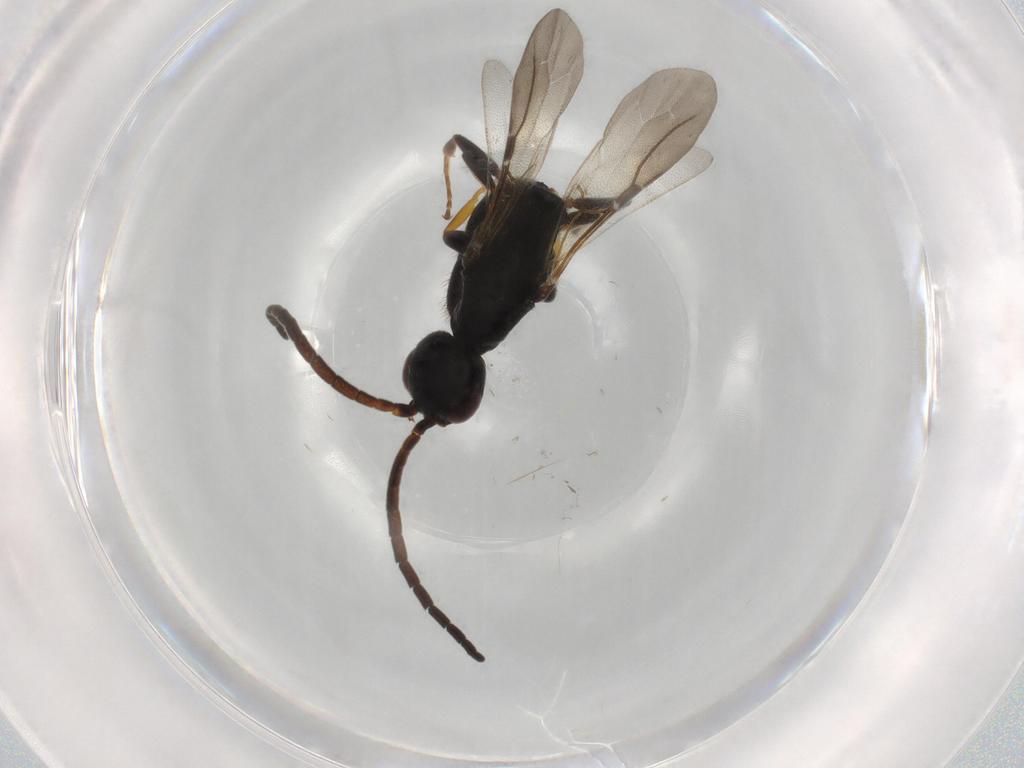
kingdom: Animalia
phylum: Arthropoda
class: Insecta
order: Hymenoptera
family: Bethylidae
